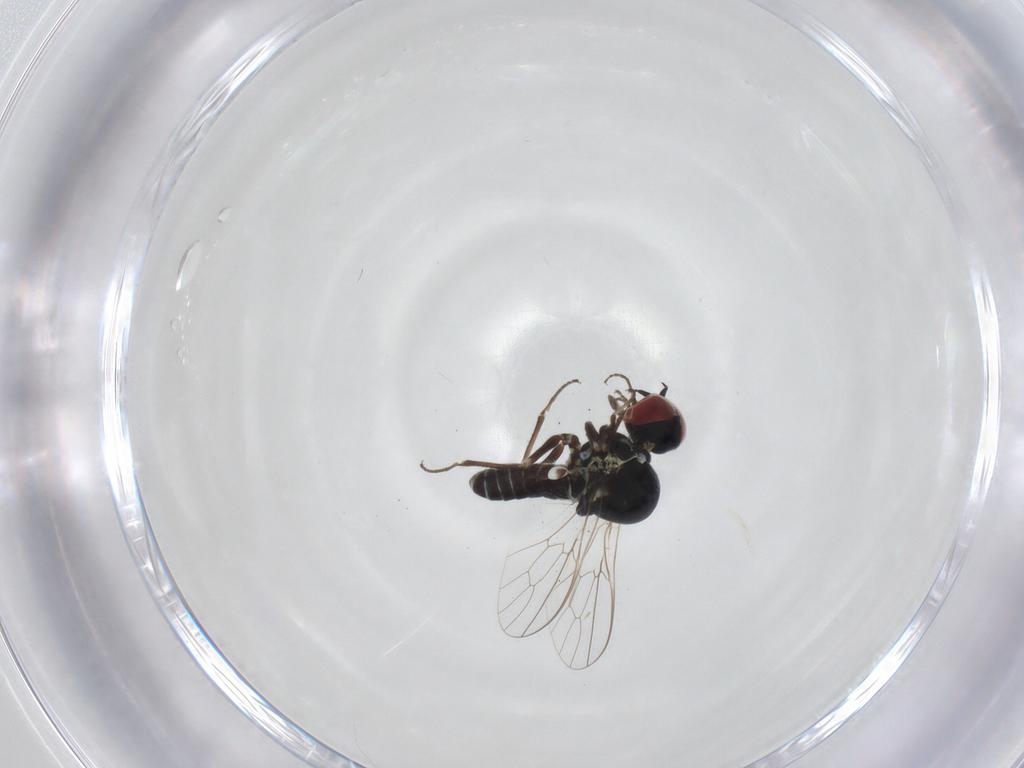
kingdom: Animalia
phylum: Arthropoda
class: Insecta
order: Diptera
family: Bombyliidae
